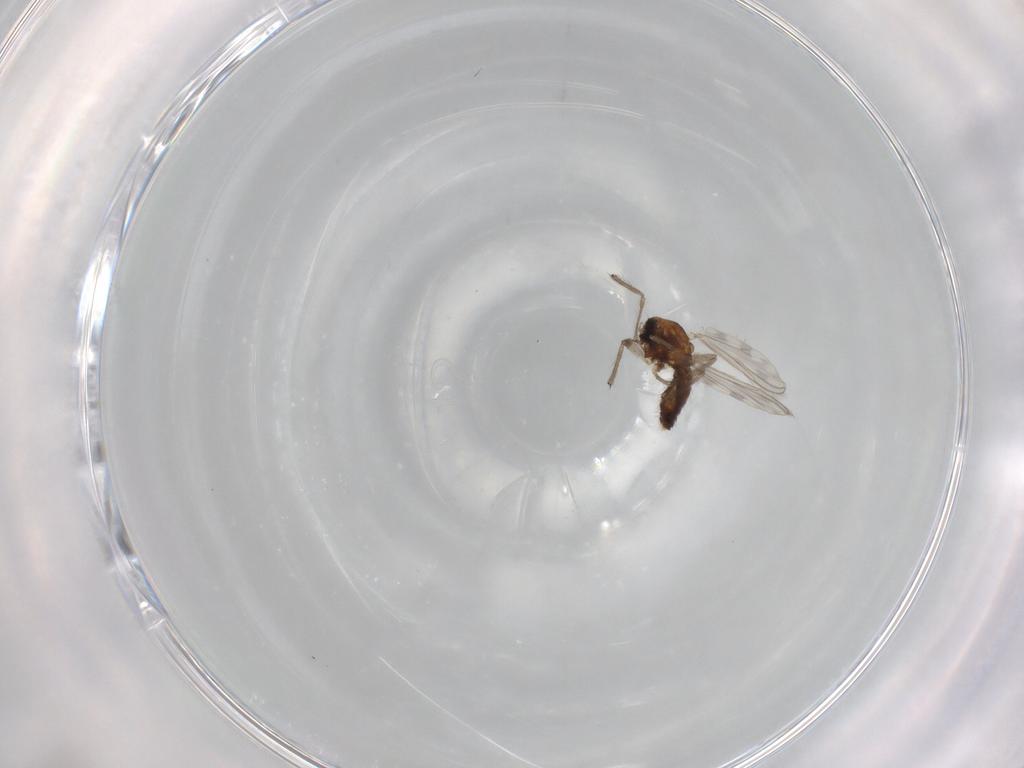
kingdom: Animalia
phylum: Arthropoda
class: Insecta
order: Diptera
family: Chironomidae
